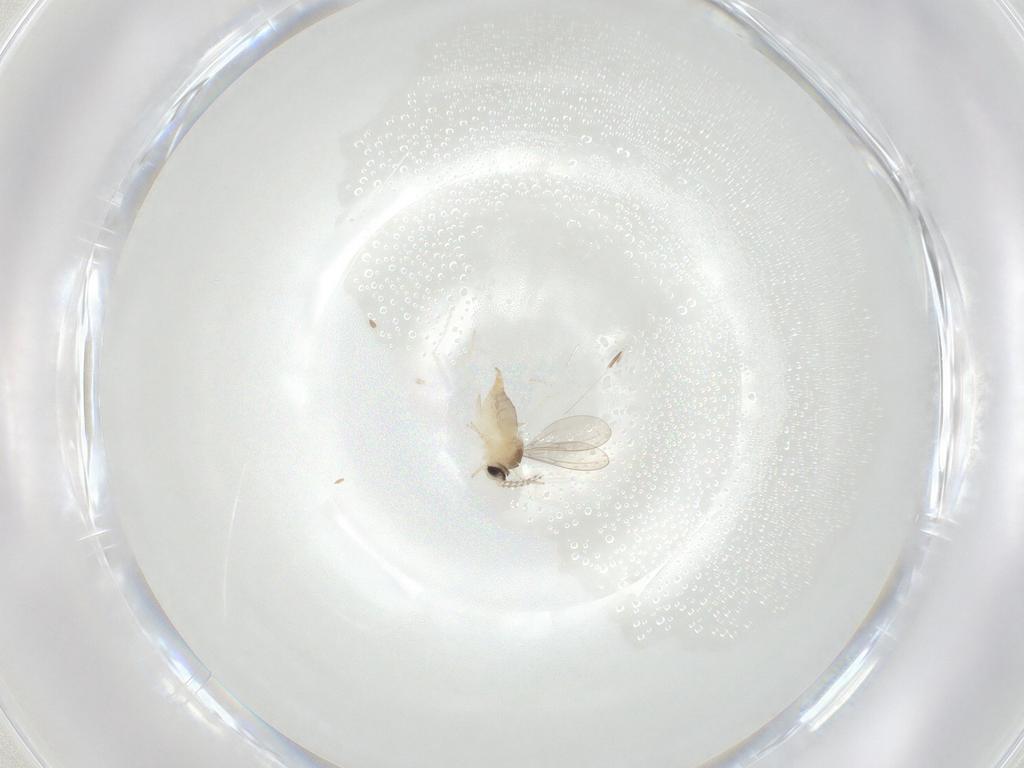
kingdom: Animalia
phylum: Arthropoda
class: Insecta
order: Diptera
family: Cecidomyiidae
